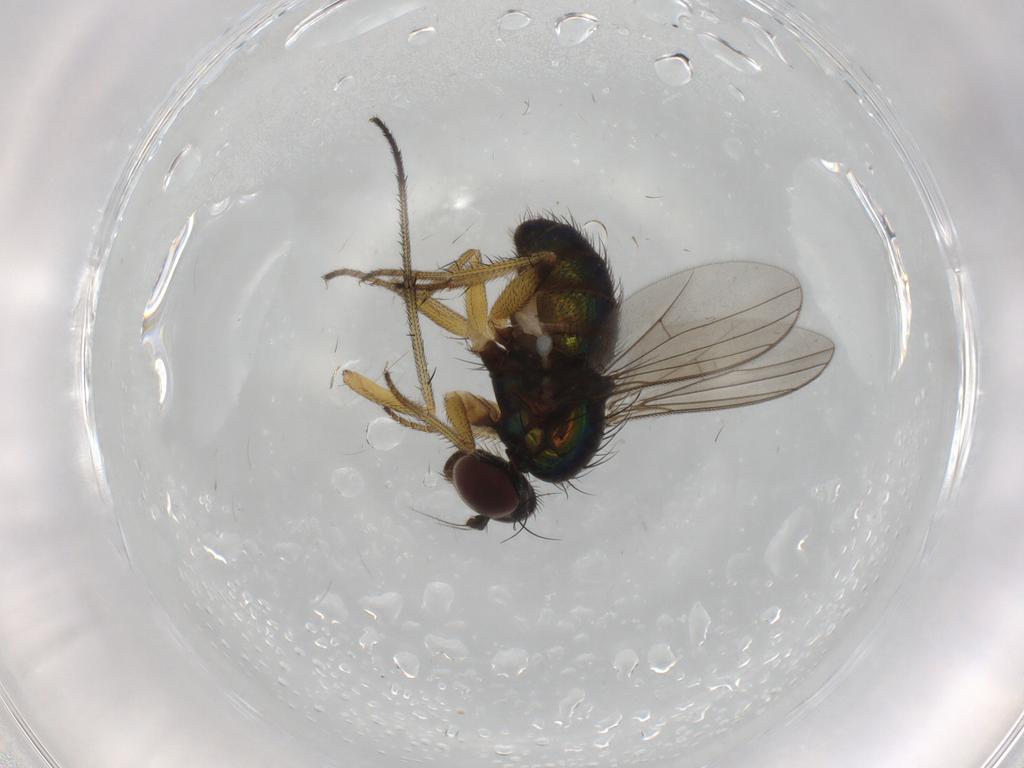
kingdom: Animalia
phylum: Arthropoda
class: Insecta
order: Diptera
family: Dolichopodidae
